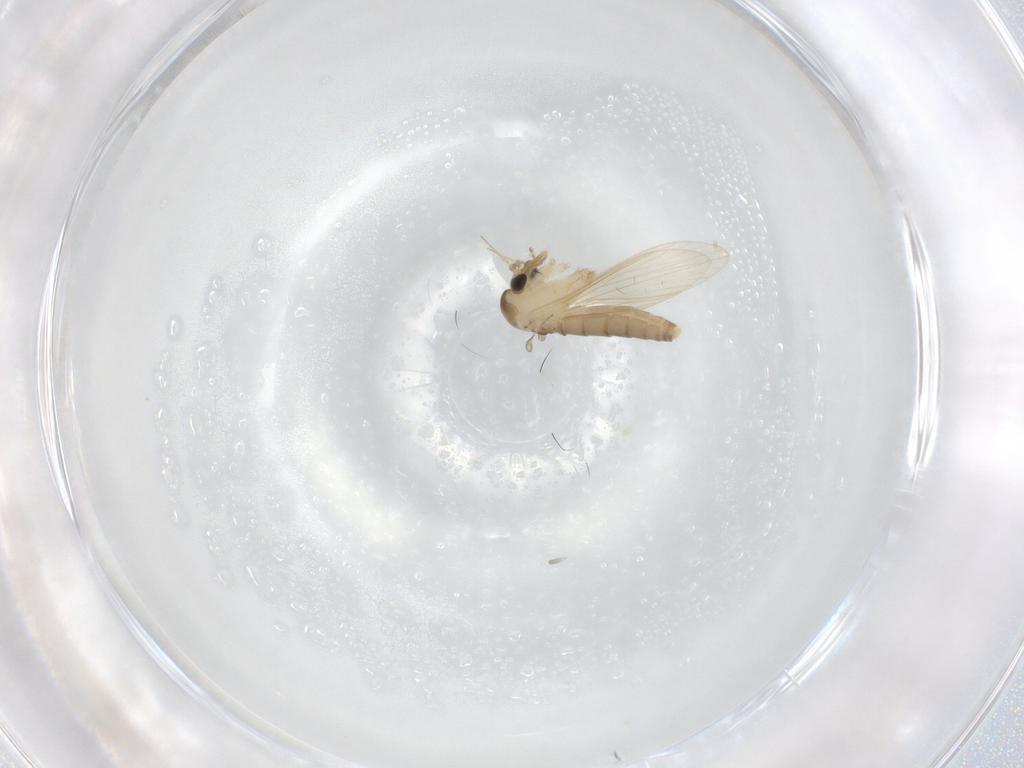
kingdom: Animalia
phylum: Arthropoda
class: Insecta
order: Diptera
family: Psychodidae
